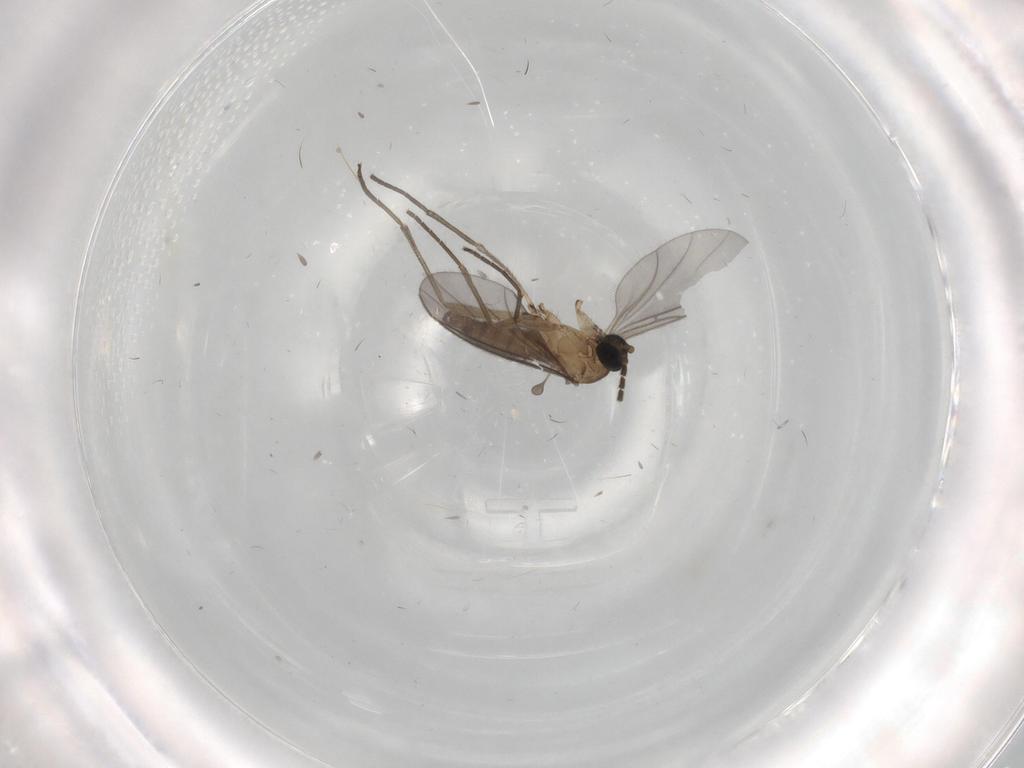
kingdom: Animalia
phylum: Arthropoda
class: Insecta
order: Diptera
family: Sciaridae
